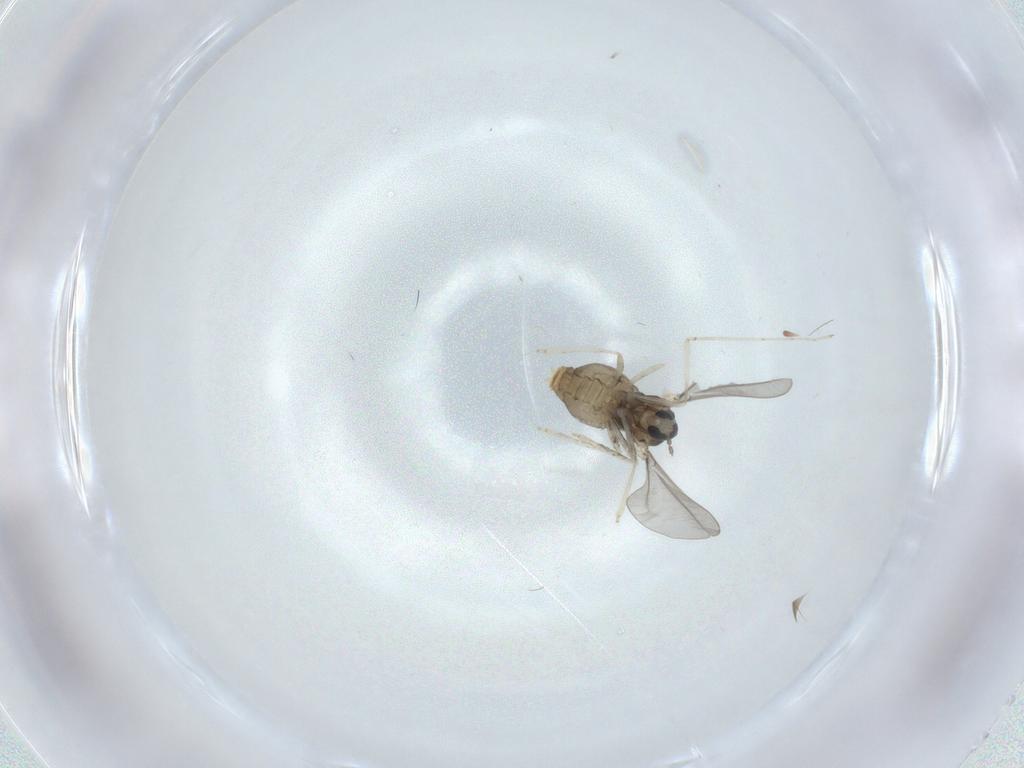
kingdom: Animalia
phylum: Arthropoda
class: Insecta
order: Diptera
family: Cecidomyiidae
